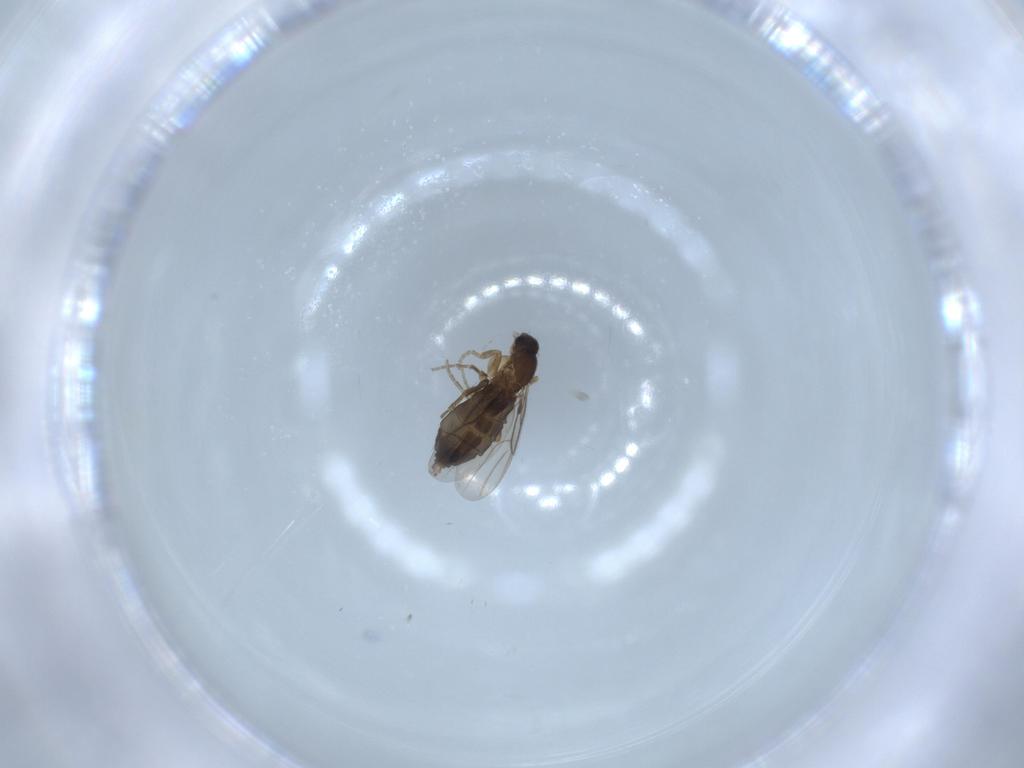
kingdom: Animalia
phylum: Arthropoda
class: Insecta
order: Diptera
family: Phoridae
